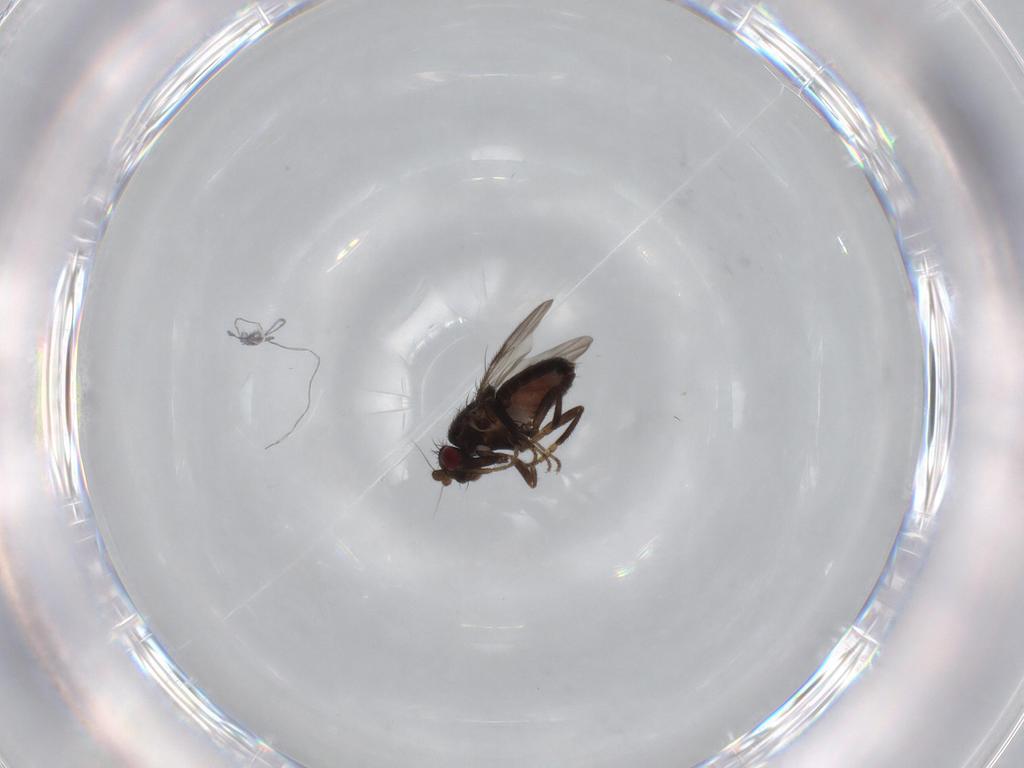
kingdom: Animalia
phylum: Arthropoda
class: Insecta
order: Diptera
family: Sphaeroceridae
